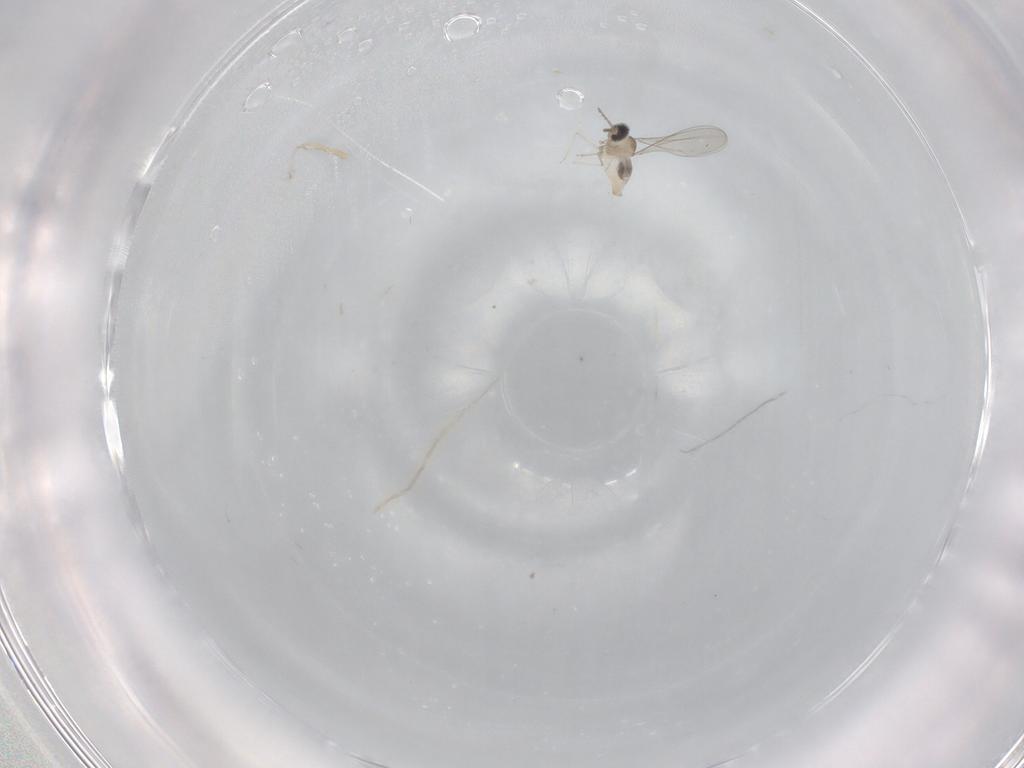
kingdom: Animalia
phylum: Arthropoda
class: Insecta
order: Diptera
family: Cecidomyiidae
